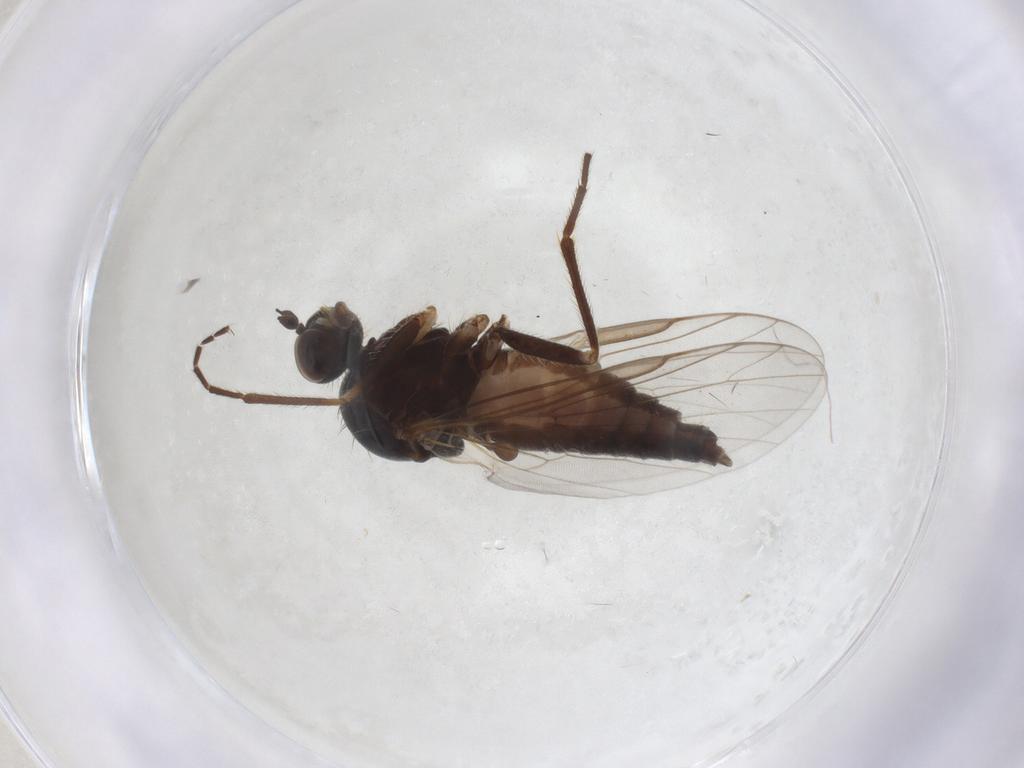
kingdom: Animalia
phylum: Arthropoda
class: Insecta
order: Diptera
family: Empididae
